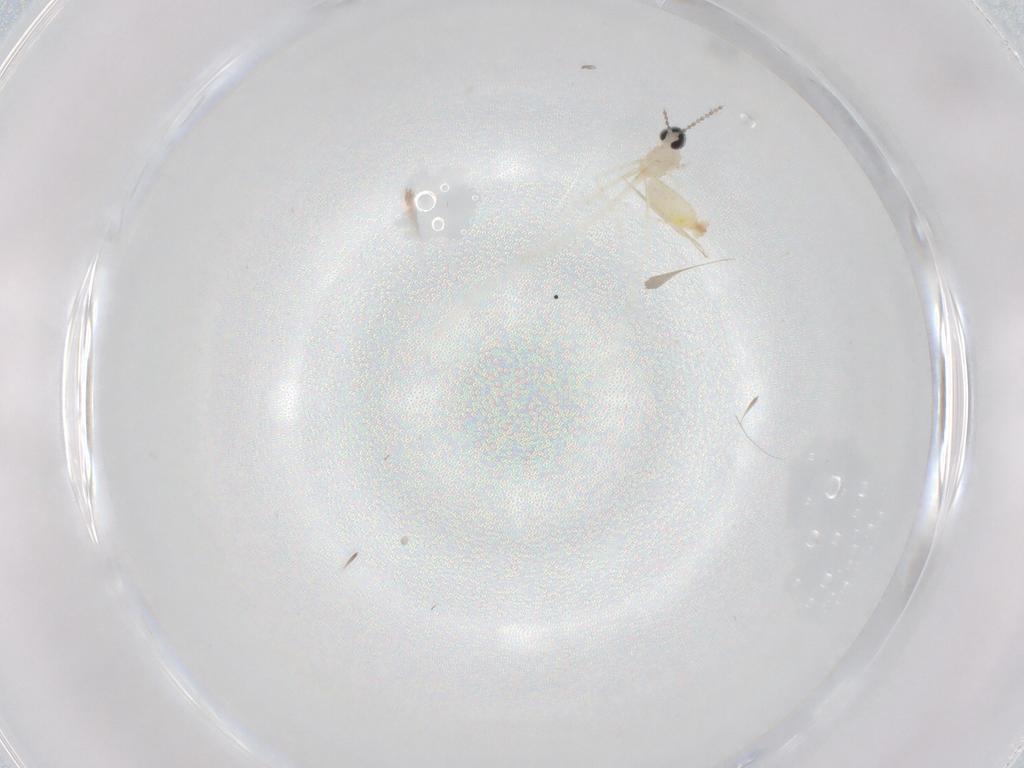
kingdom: Animalia
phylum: Arthropoda
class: Insecta
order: Diptera
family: Cecidomyiidae
